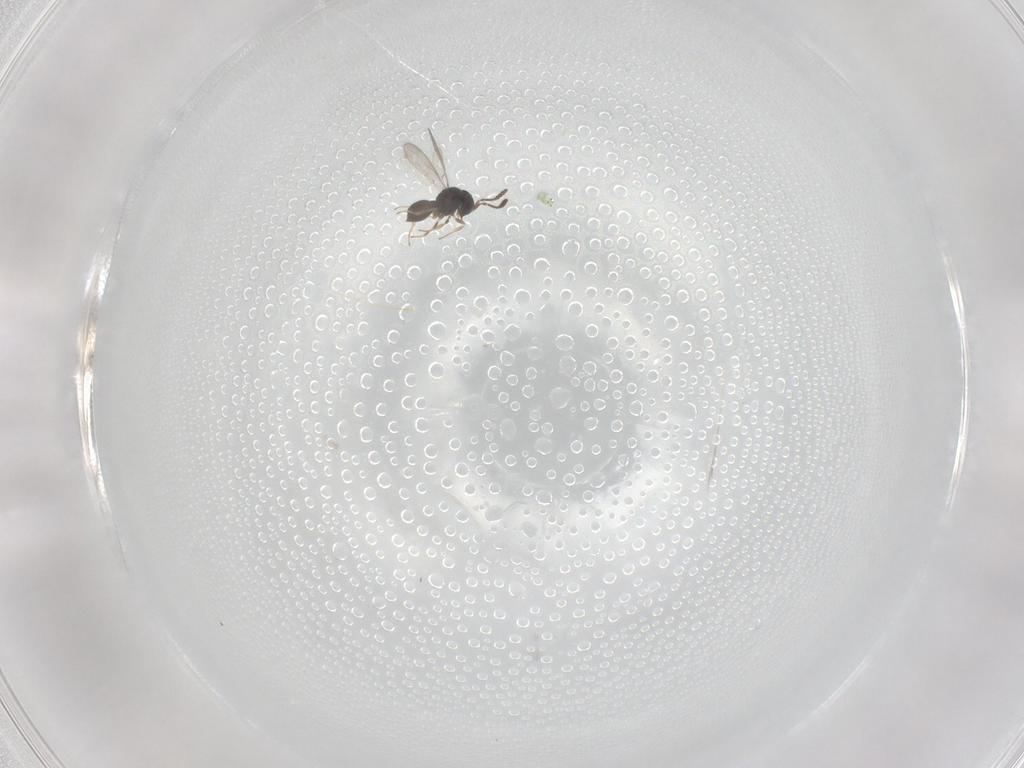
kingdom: Animalia
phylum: Arthropoda
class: Insecta
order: Hymenoptera
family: Scelionidae
